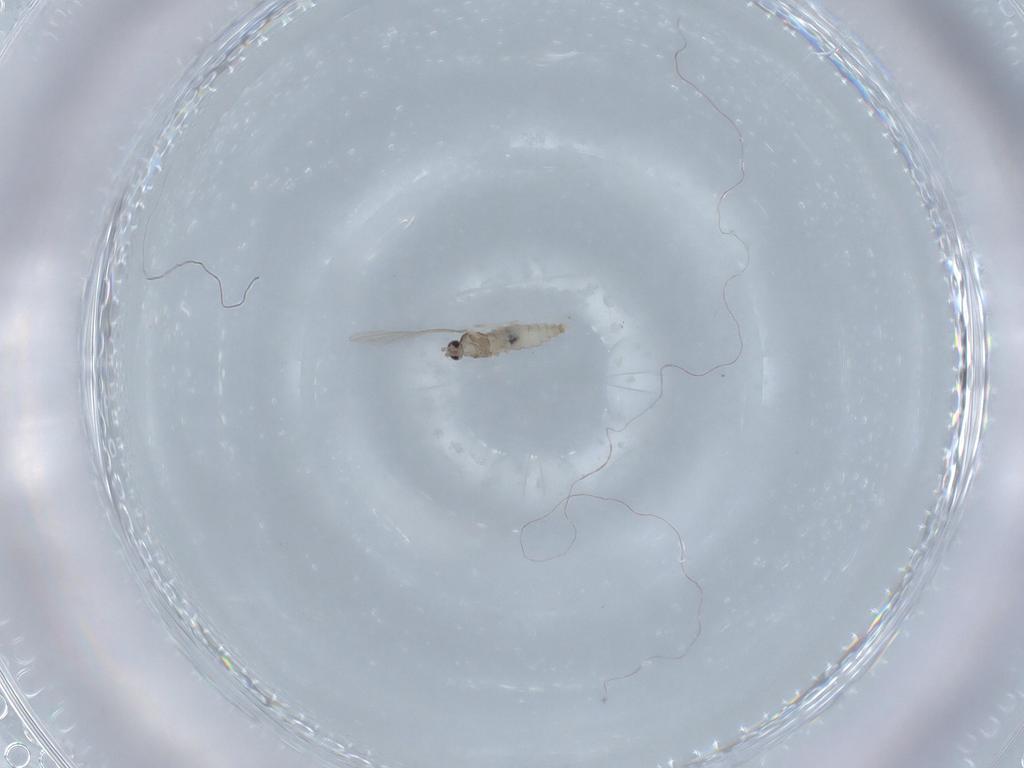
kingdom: Animalia
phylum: Arthropoda
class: Insecta
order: Diptera
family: Cecidomyiidae
